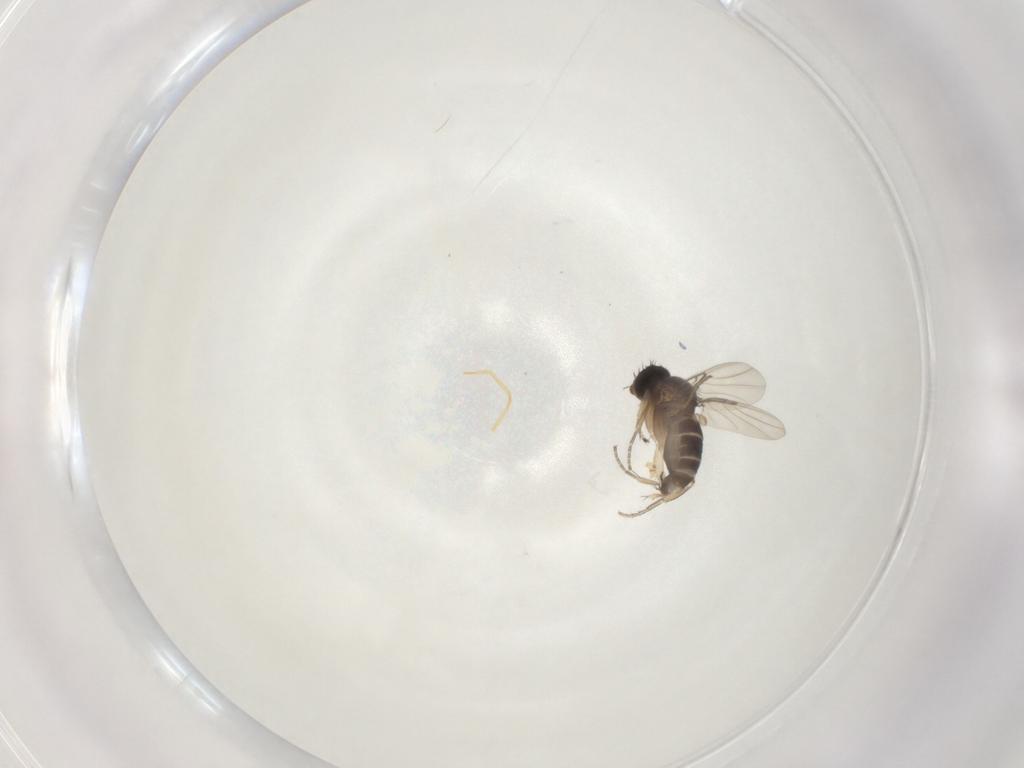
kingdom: Animalia
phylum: Arthropoda
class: Insecta
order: Diptera
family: Phoridae
